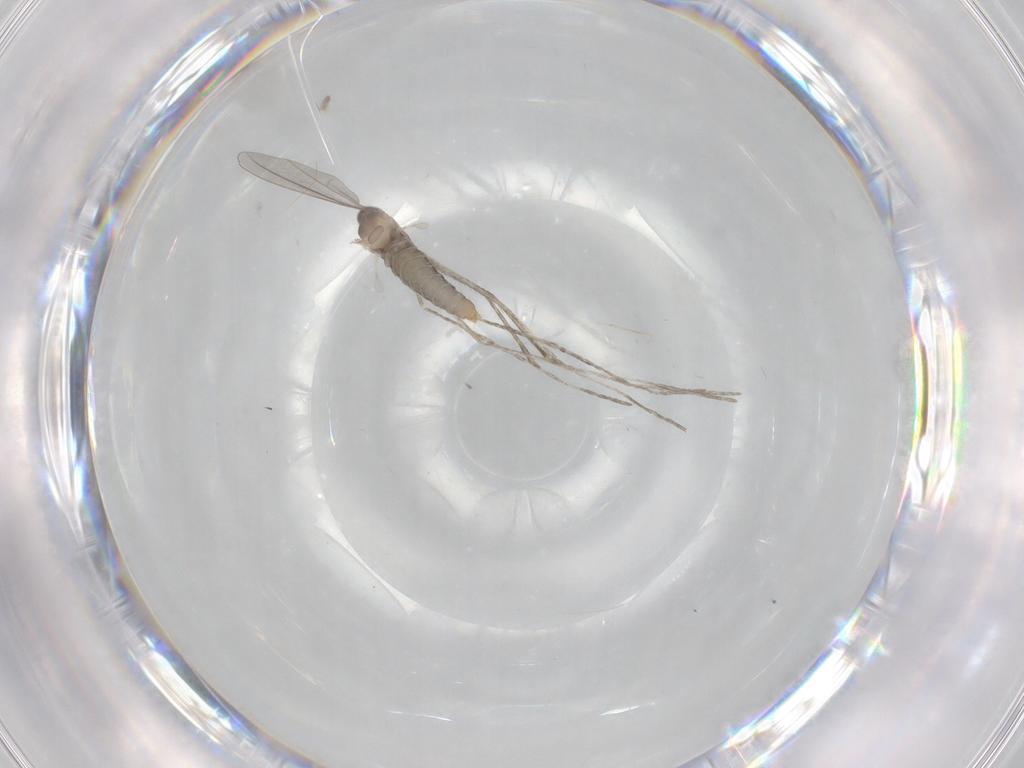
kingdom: Animalia
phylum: Arthropoda
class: Insecta
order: Diptera
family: Cecidomyiidae
